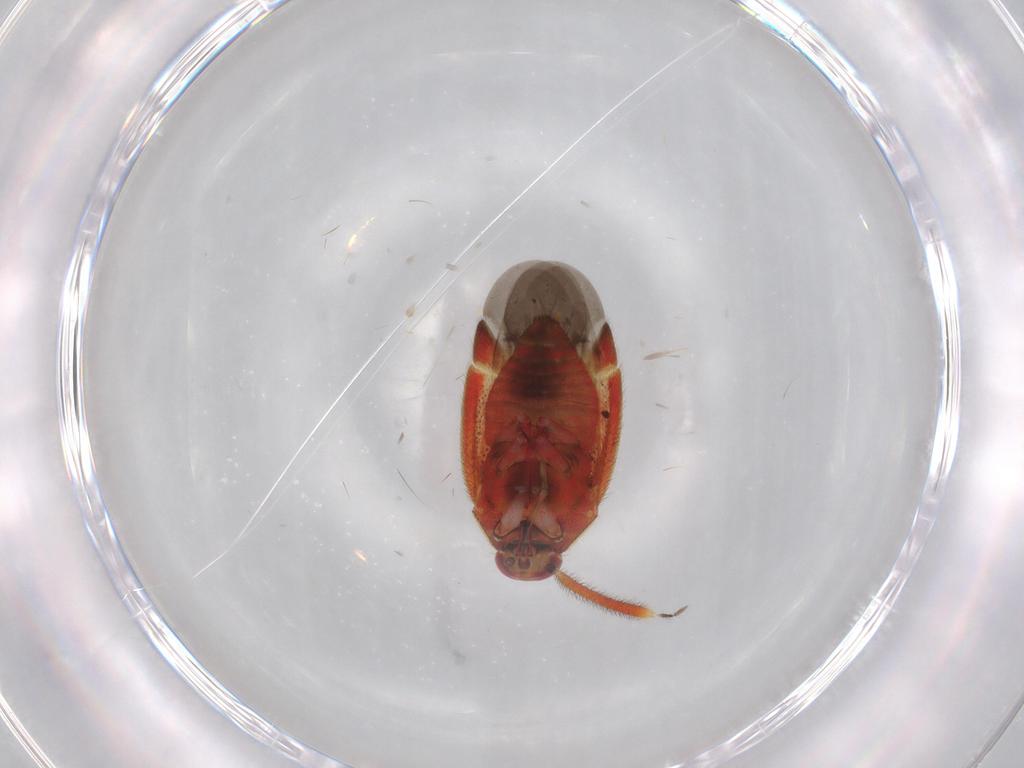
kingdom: Animalia
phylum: Arthropoda
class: Insecta
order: Hemiptera
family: Miridae
